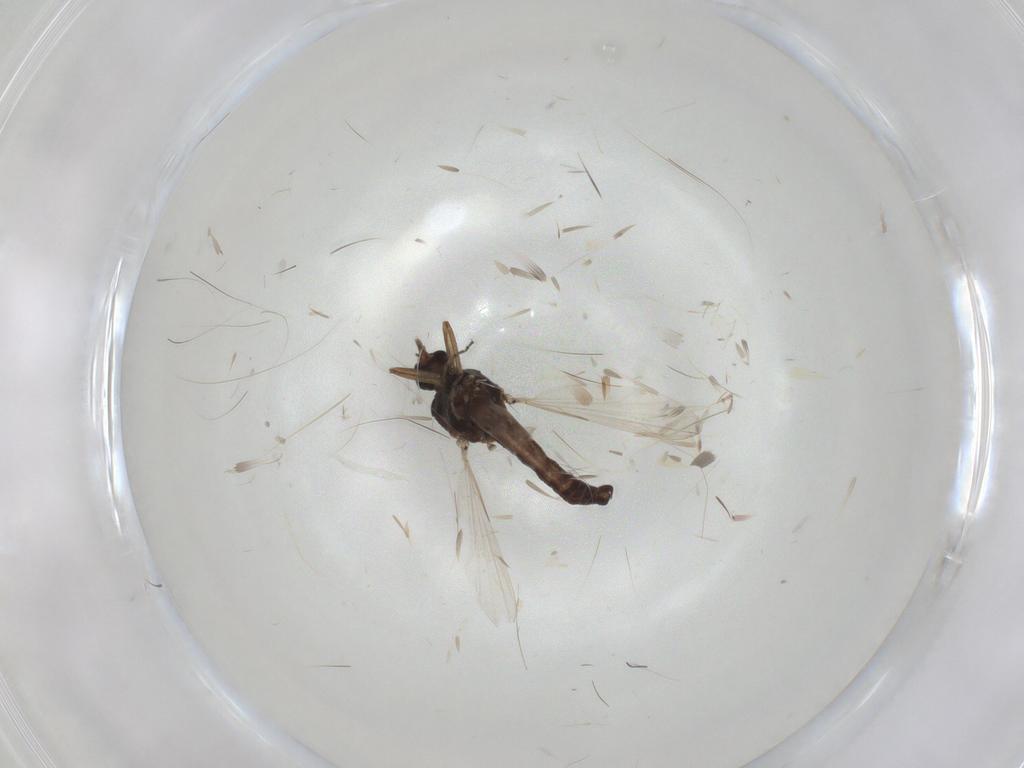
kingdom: Animalia
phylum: Arthropoda
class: Insecta
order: Diptera
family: Ceratopogonidae
